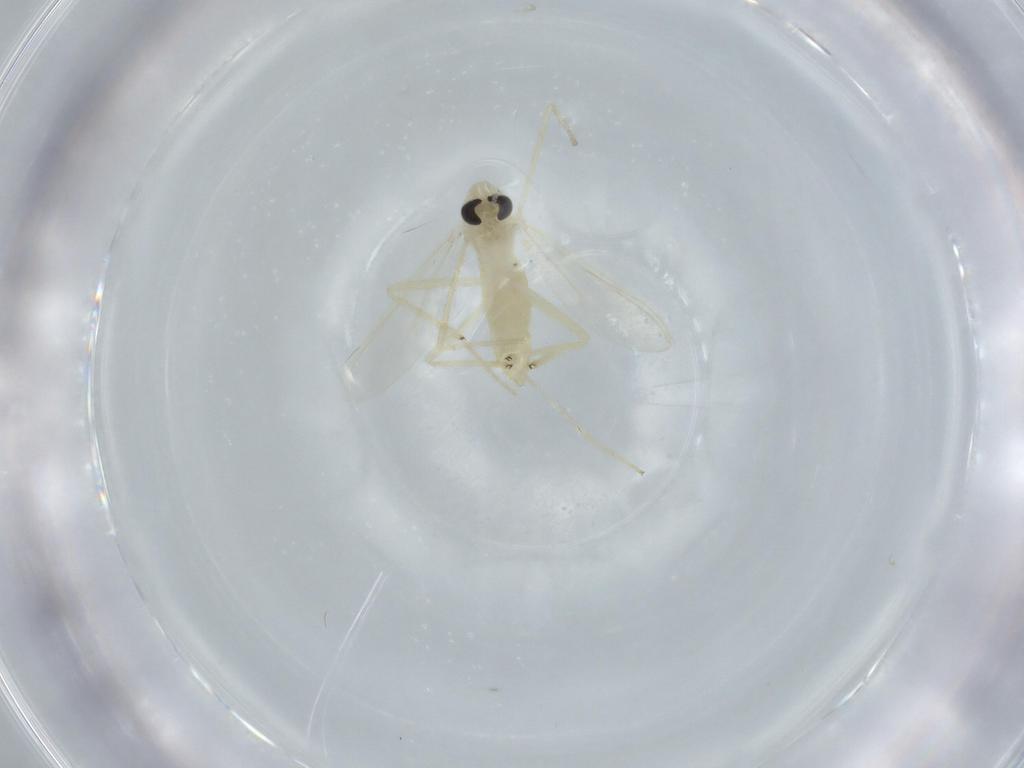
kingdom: Animalia
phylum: Arthropoda
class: Insecta
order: Diptera
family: Chironomidae
